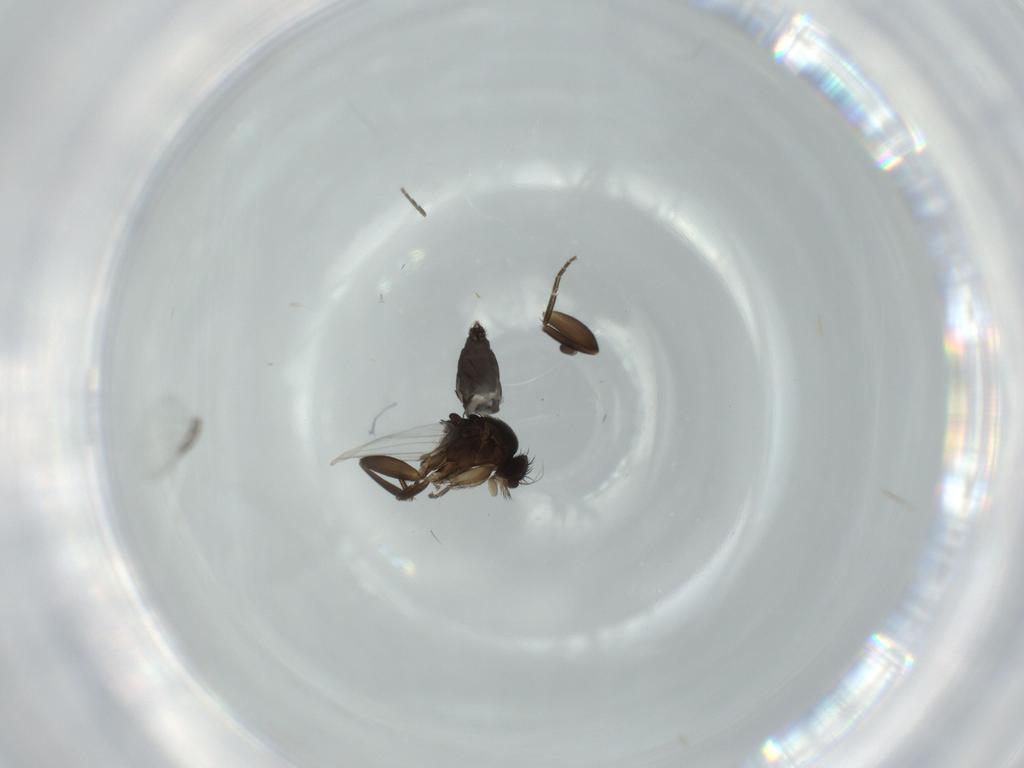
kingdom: Animalia
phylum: Arthropoda
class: Insecta
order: Diptera
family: Phoridae
